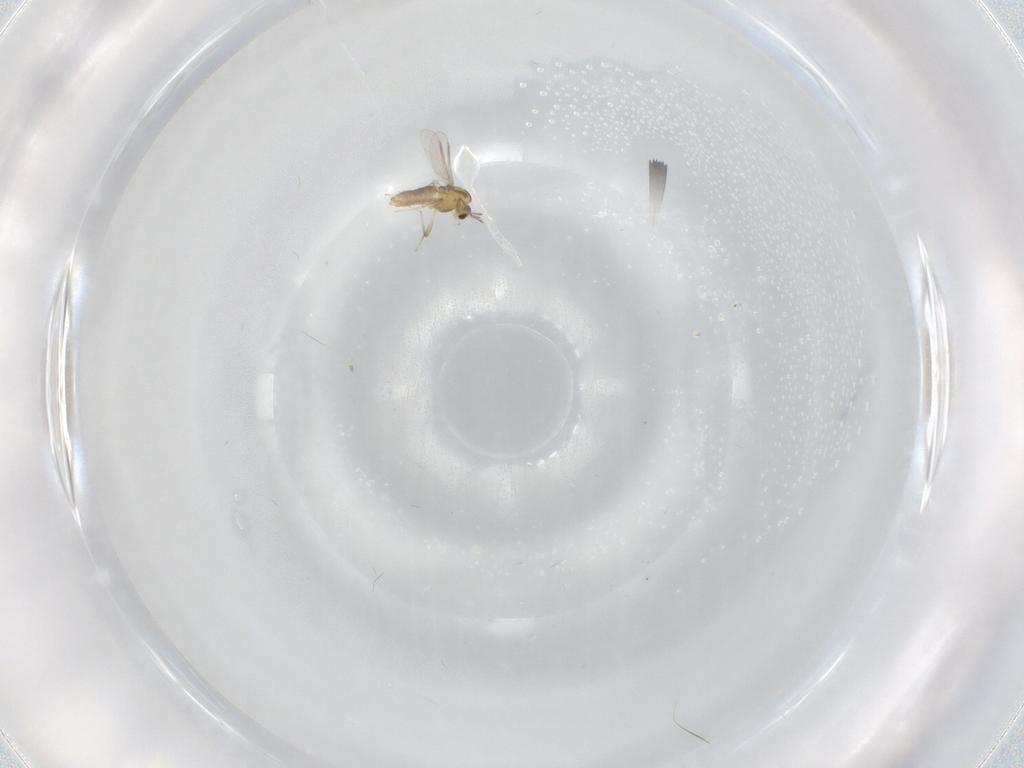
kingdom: Animalia
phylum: Arthropoda
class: Insecta
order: Diptera
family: Chironomidae
